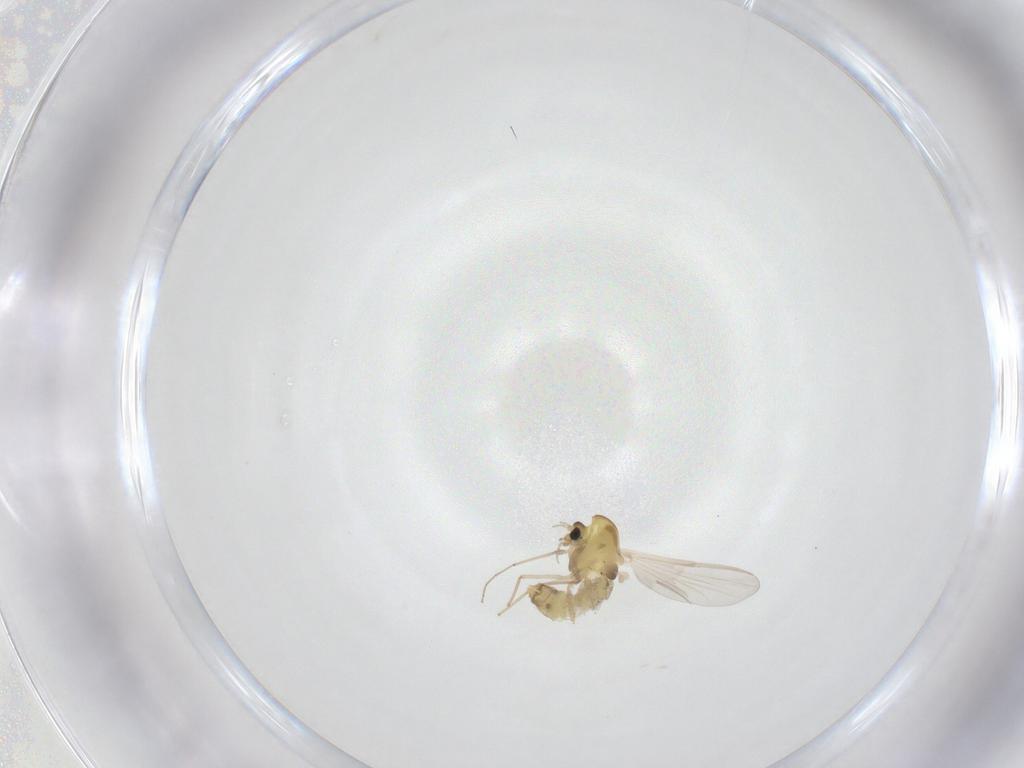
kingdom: Animalia
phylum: Arthropoda
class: Insecta
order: Diptera
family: Chironomidae
